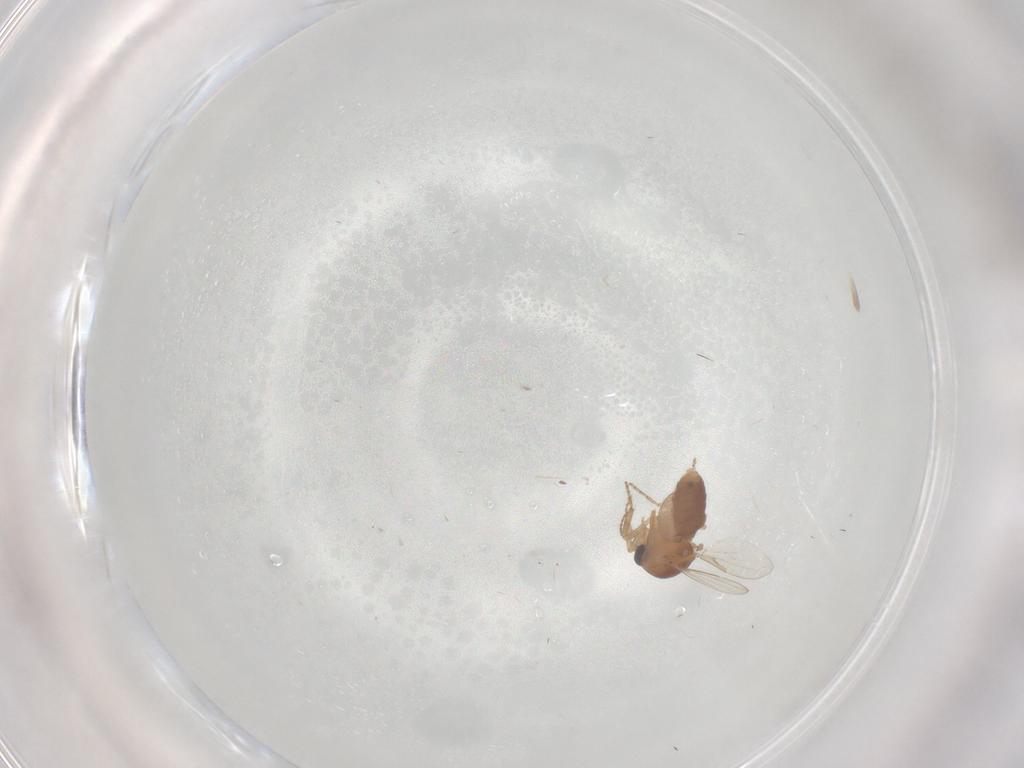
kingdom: Animalia
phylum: Arthropoda
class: Insecta
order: Diptera
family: Ceratopogonidae
